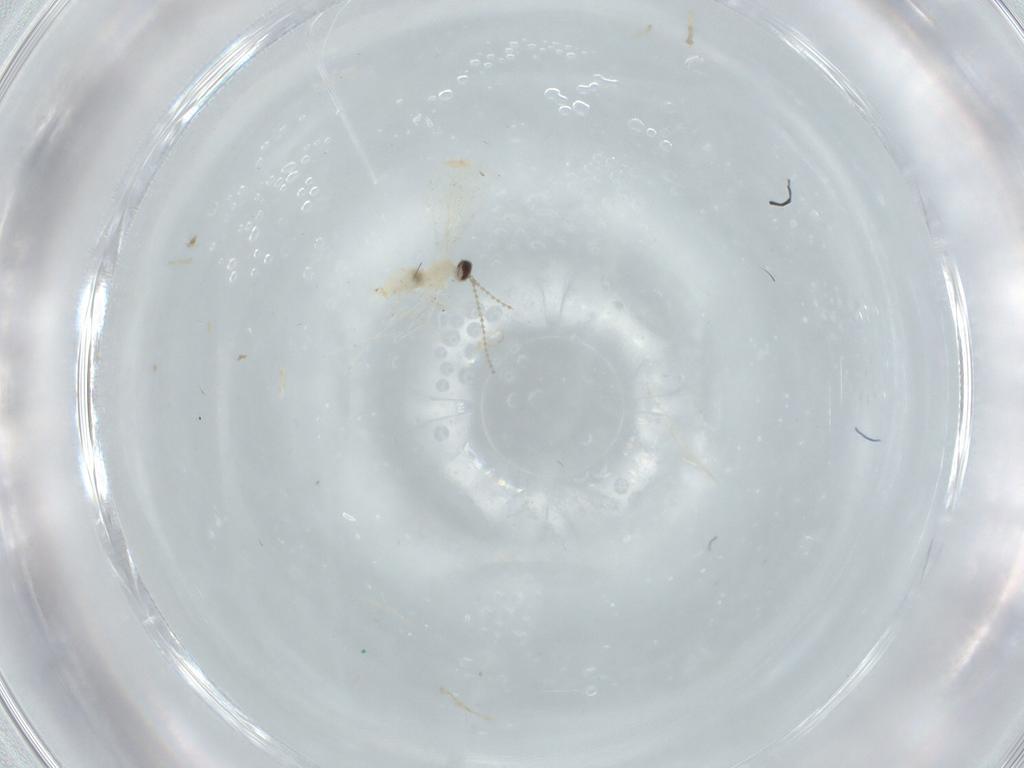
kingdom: Animalia
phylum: Arthropoda
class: Insecta
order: Diptera
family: Cecidomyiidae
